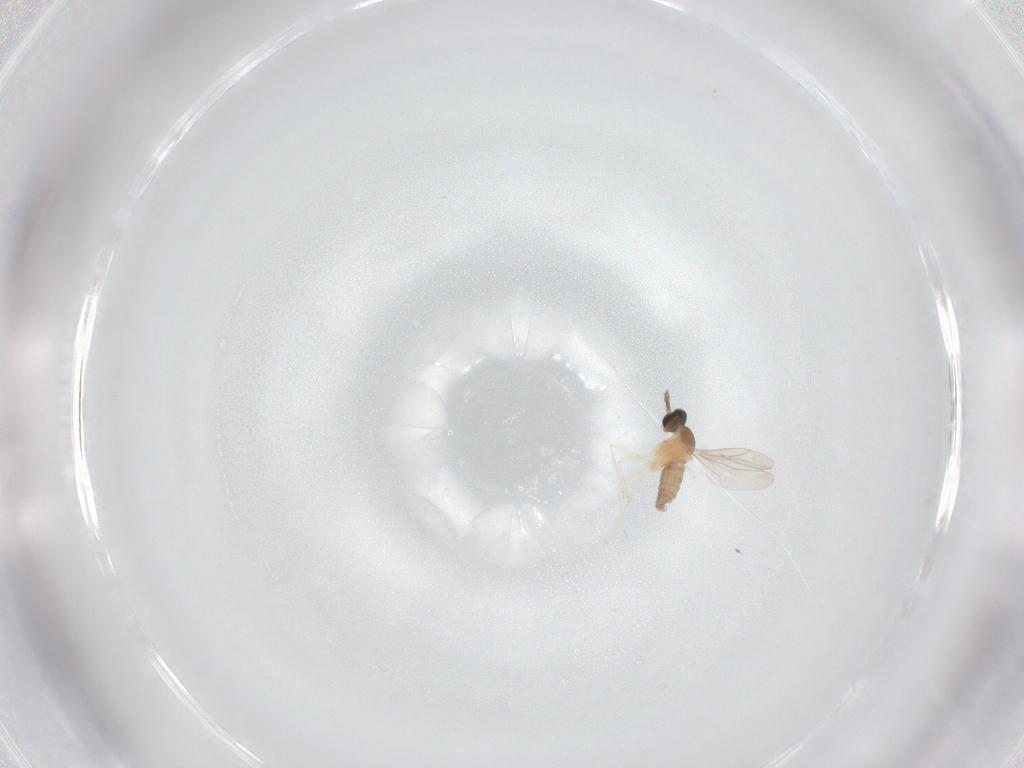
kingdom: Animalia
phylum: Arthropoda
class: Insecta
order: Diptera
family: Cecidomyiidae
